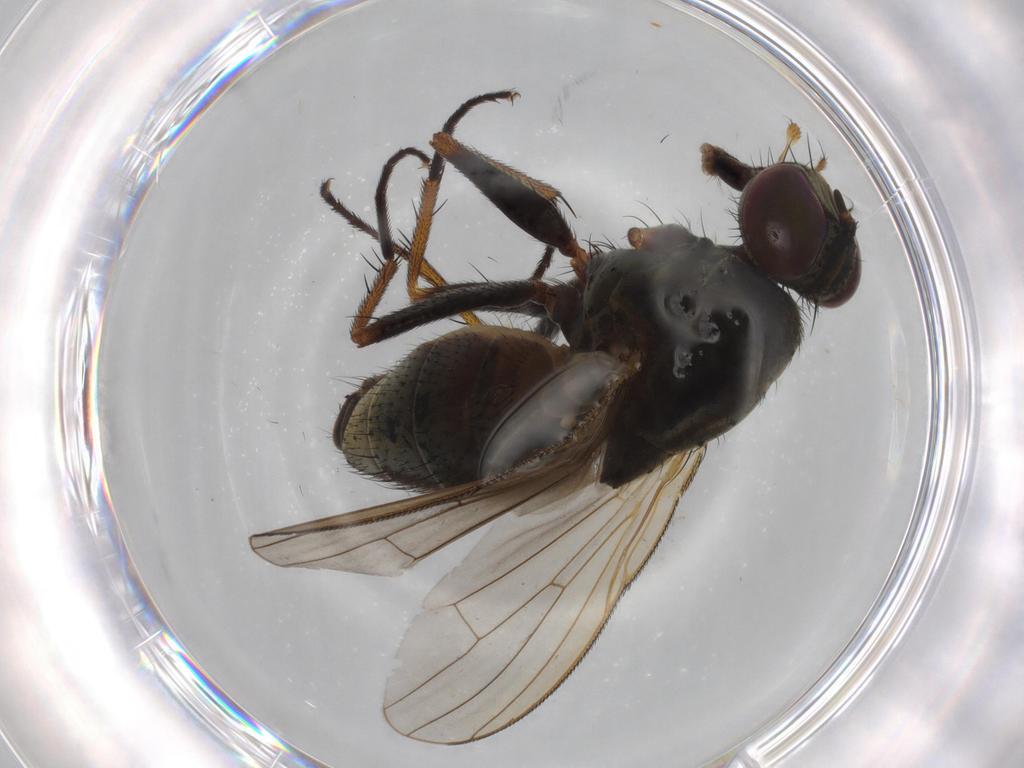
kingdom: Animalia
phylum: Arthropoda
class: Insecta
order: Diptera
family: Muscidae
